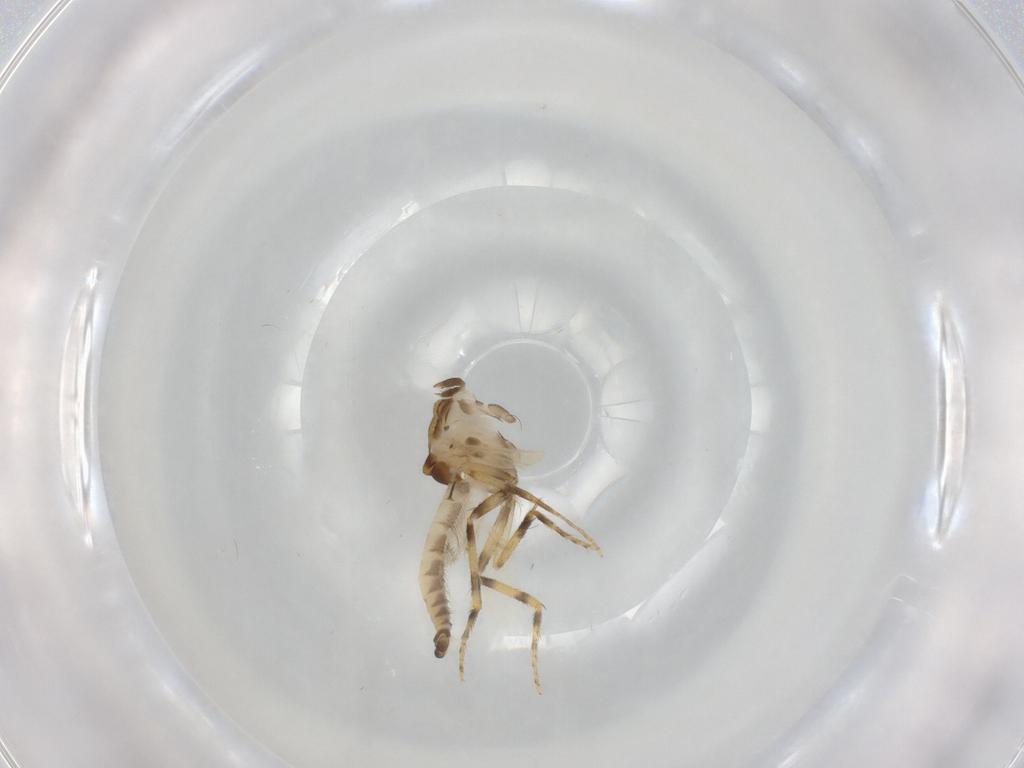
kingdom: Animalia
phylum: Arthropoda
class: Insecta
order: Diptera
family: Ceratopogonidae
